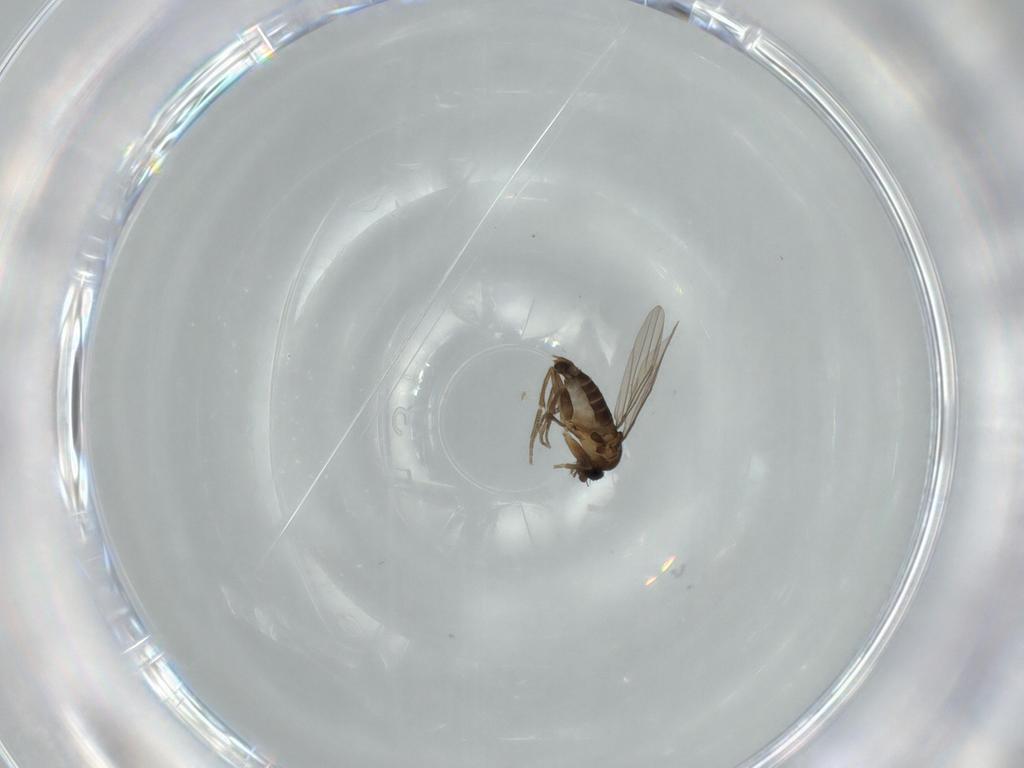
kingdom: Animalia
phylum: Arthropoda
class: Insecta
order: Diptera
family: Phoridae
